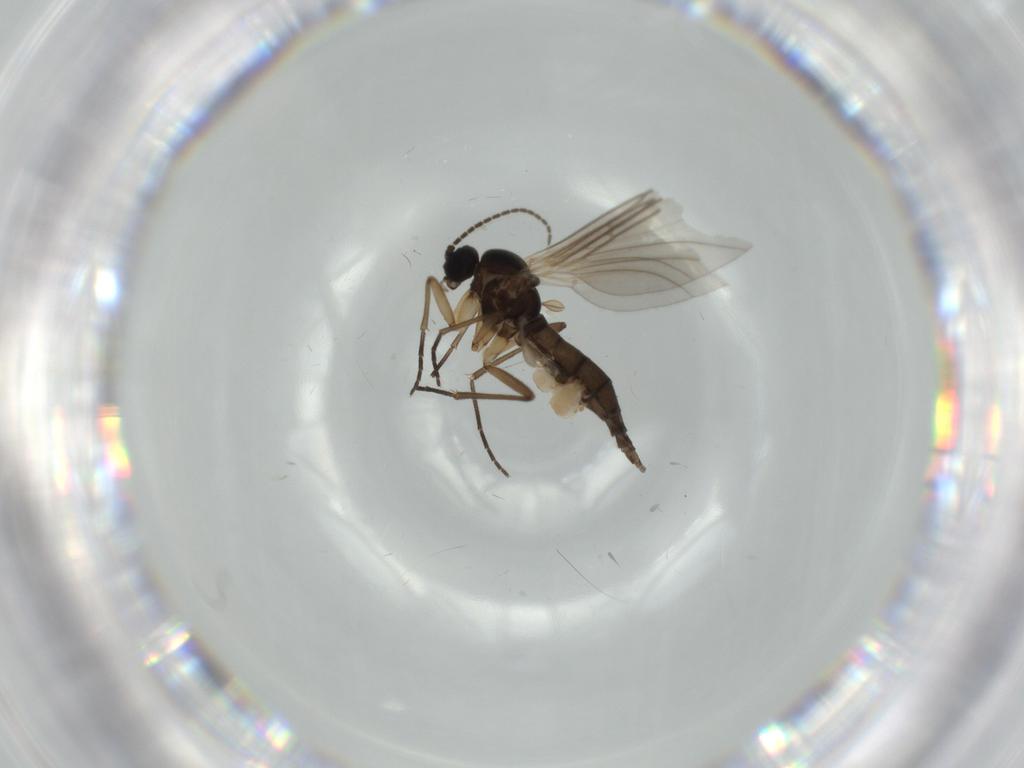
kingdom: Animalia
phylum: Arthropoda
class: Insecta
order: Diptera
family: Sciaridae
